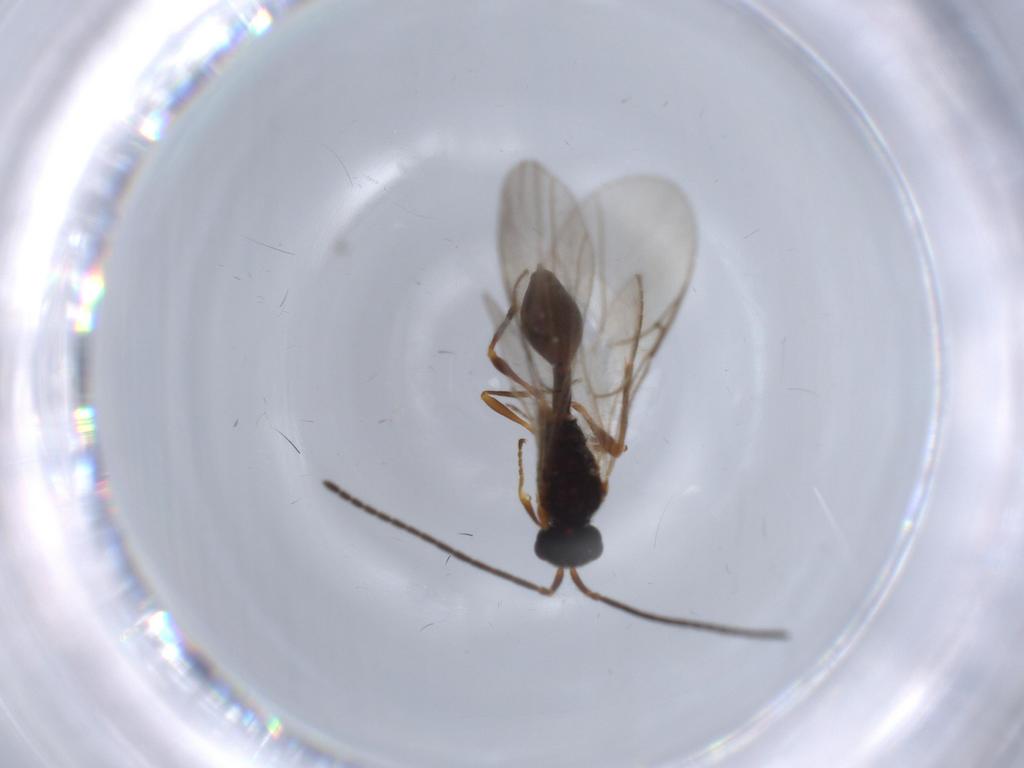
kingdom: Animalia
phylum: Arthropoda
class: Insecta
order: Hymenoptera
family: Diapriidae
